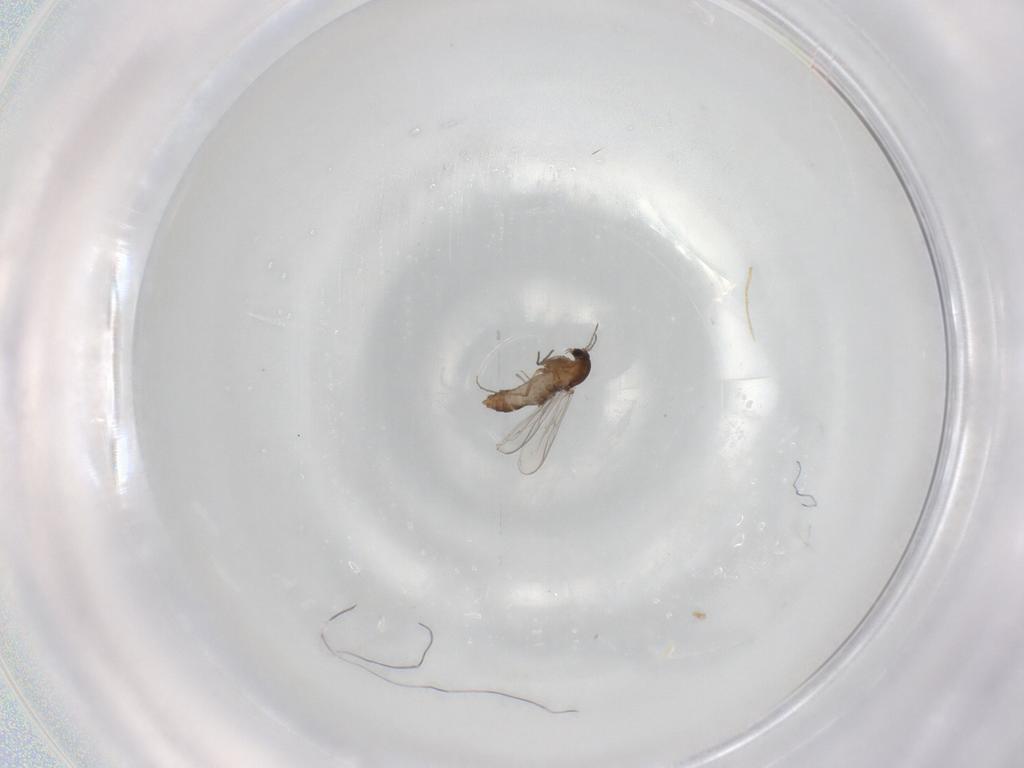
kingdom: Animalia
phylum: Arthropoda
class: Insecta
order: Diptera
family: Chironomidae
